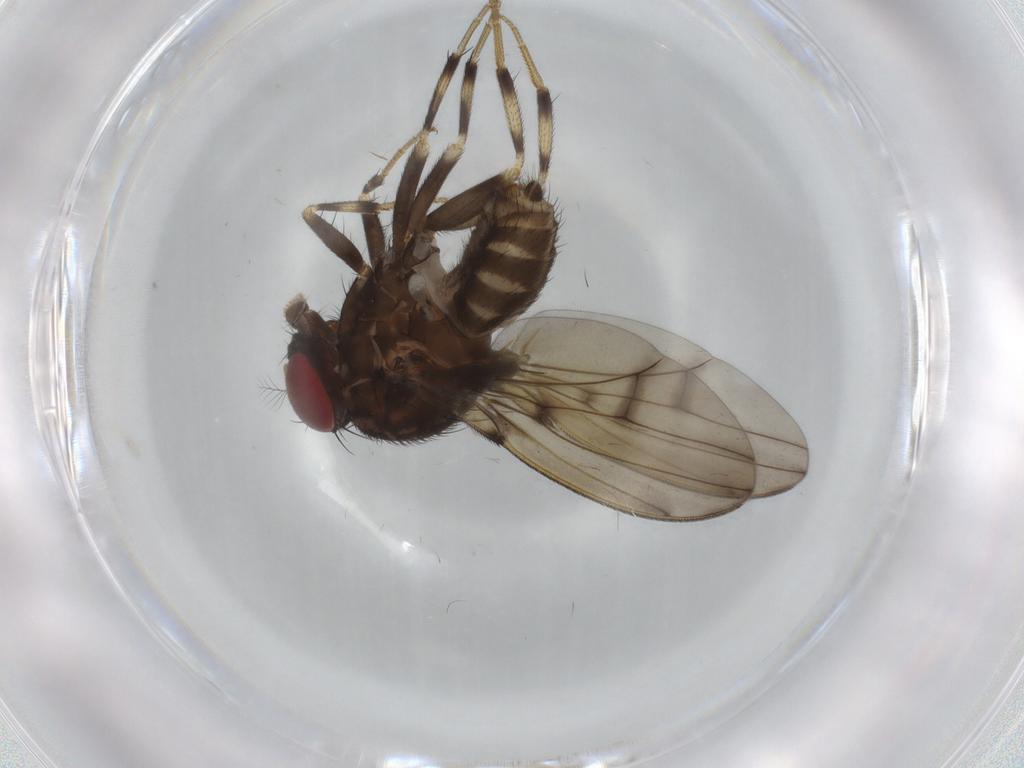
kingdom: Animalia
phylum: Arthropoda
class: Insecta
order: Diptera
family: Drosophilidae
